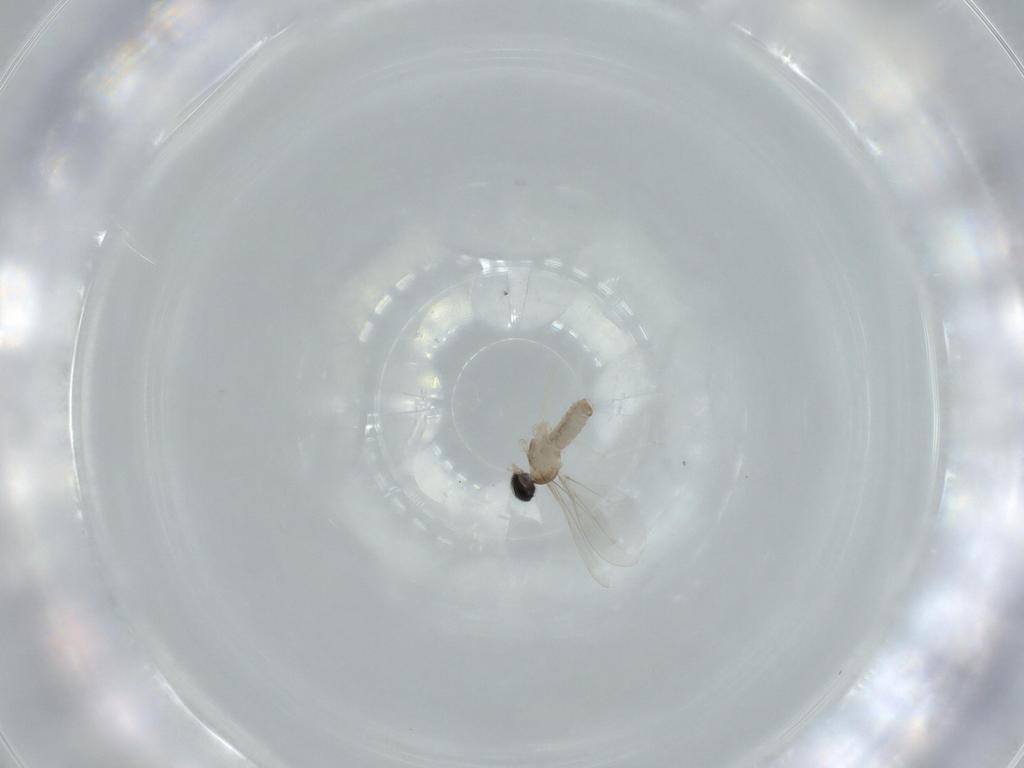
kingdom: Animalia
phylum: Arthropoda
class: Insecta
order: Diptera
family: Cecidomyiidae
